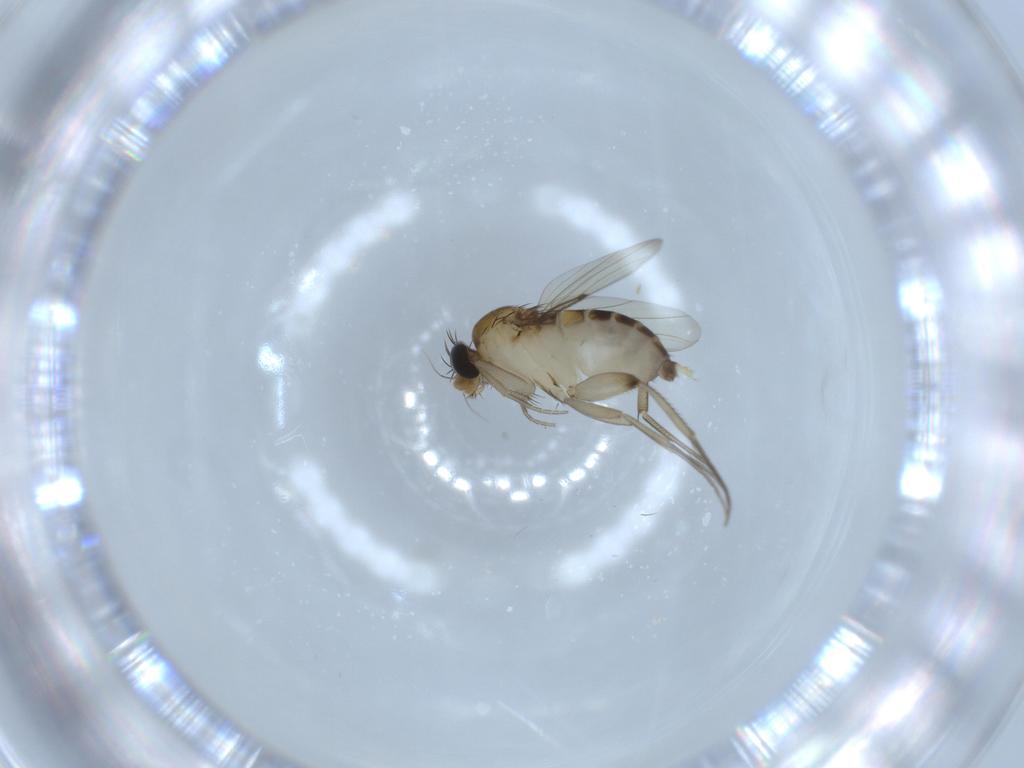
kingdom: Animalia
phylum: Arthropoda
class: Insecta
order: Diptera
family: Phoridae
